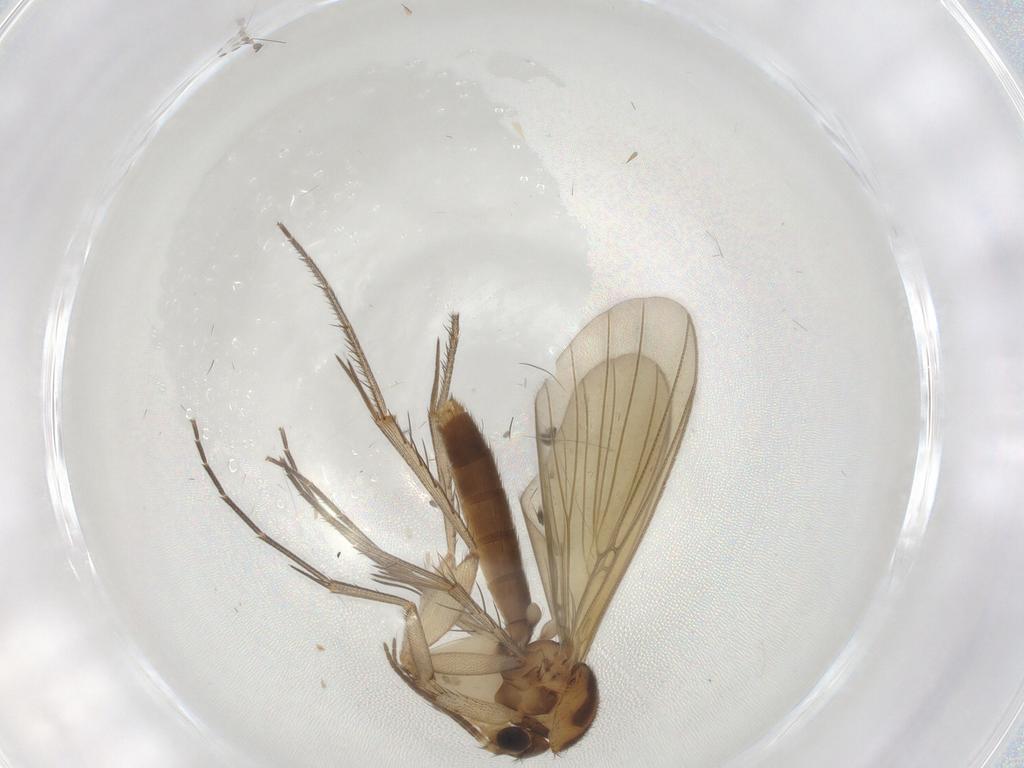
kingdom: Animalia
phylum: Arthropoda
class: Insecta
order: Diptera
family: Mycetophilidae
